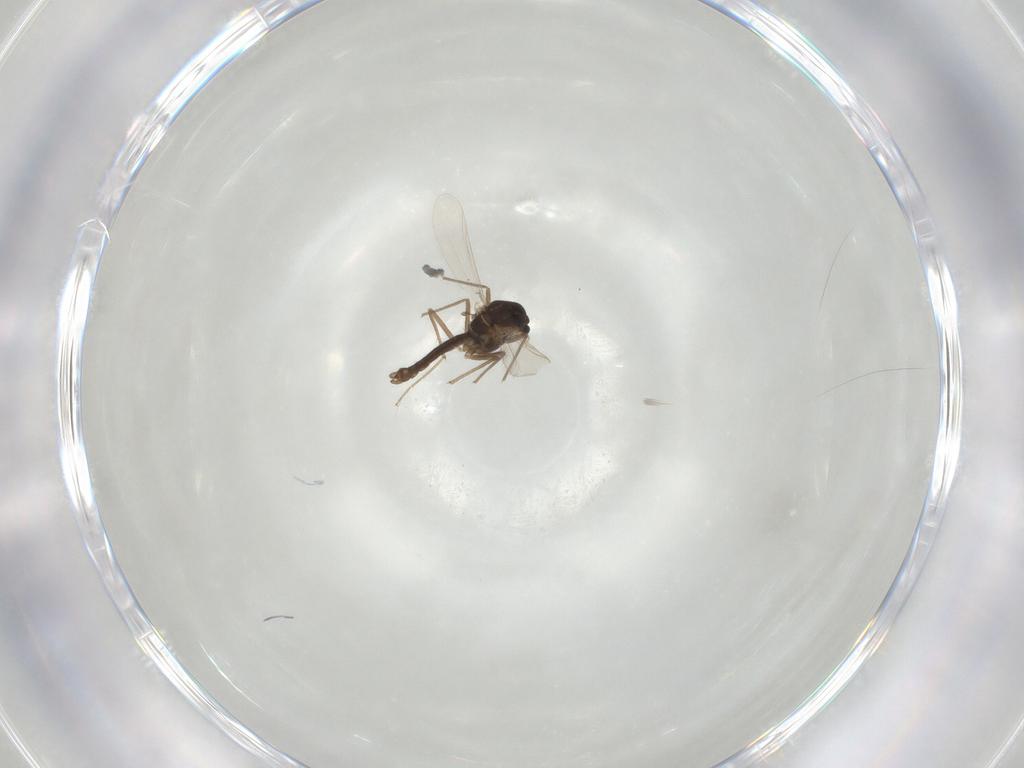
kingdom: Animalia
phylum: Arthropoda
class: Insecta
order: Diptera
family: Chironomidae
